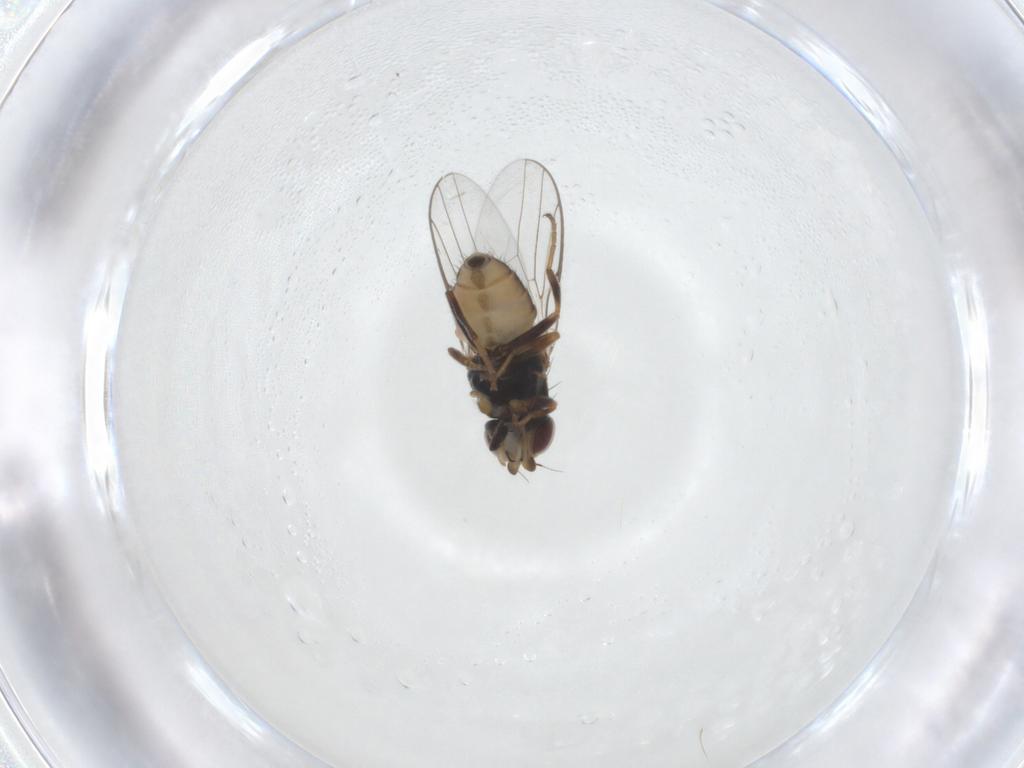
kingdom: Animalia
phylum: Arthropoda
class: Insecta
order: Diptera
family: Chloropidae
